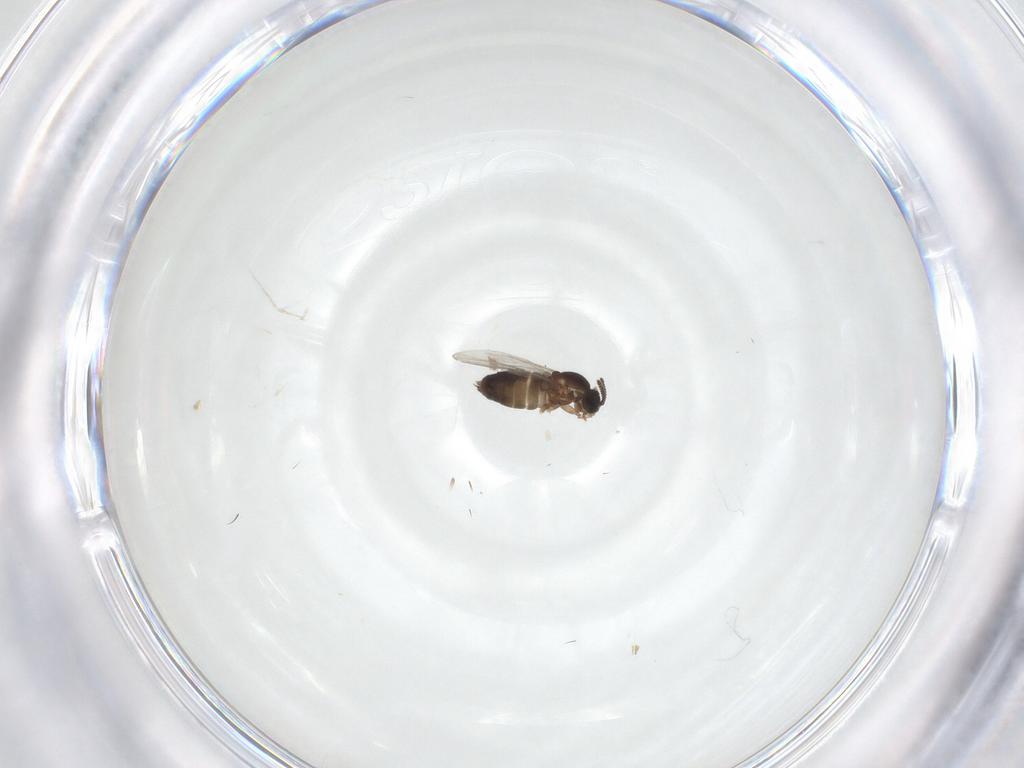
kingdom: Animalia
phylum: Arthropoda
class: Insecta
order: Diptera
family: Scatopsidae
